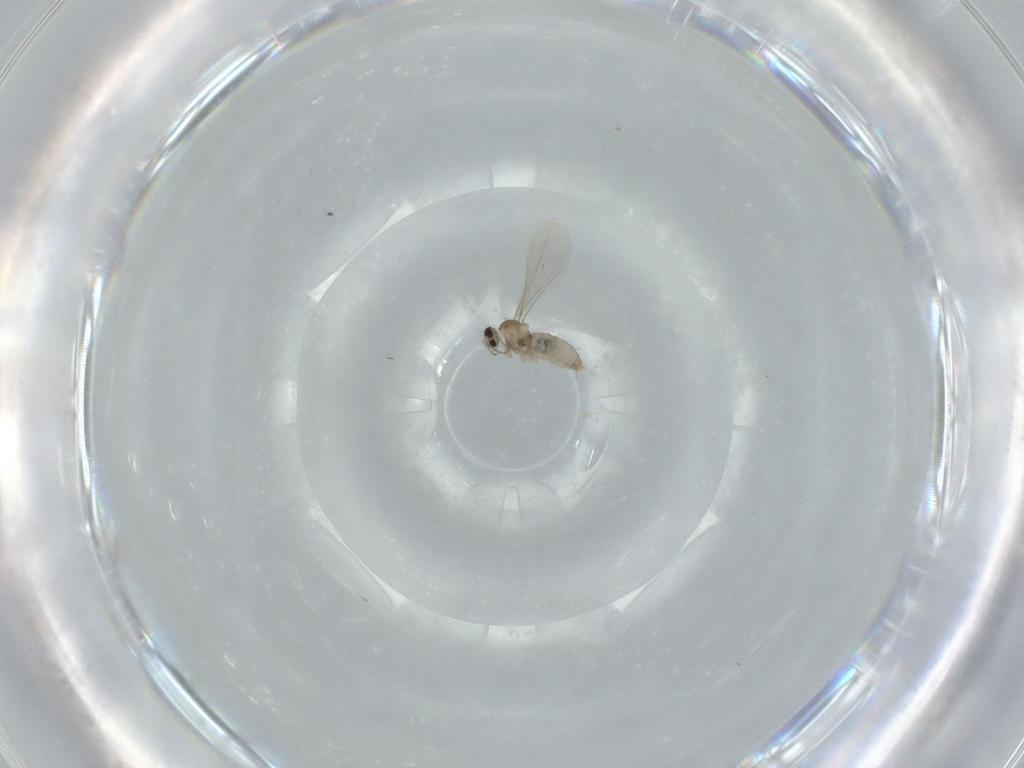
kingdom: Animalia
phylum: Arthropoda
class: Insecta
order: Diptera
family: Cecidomyiidae
